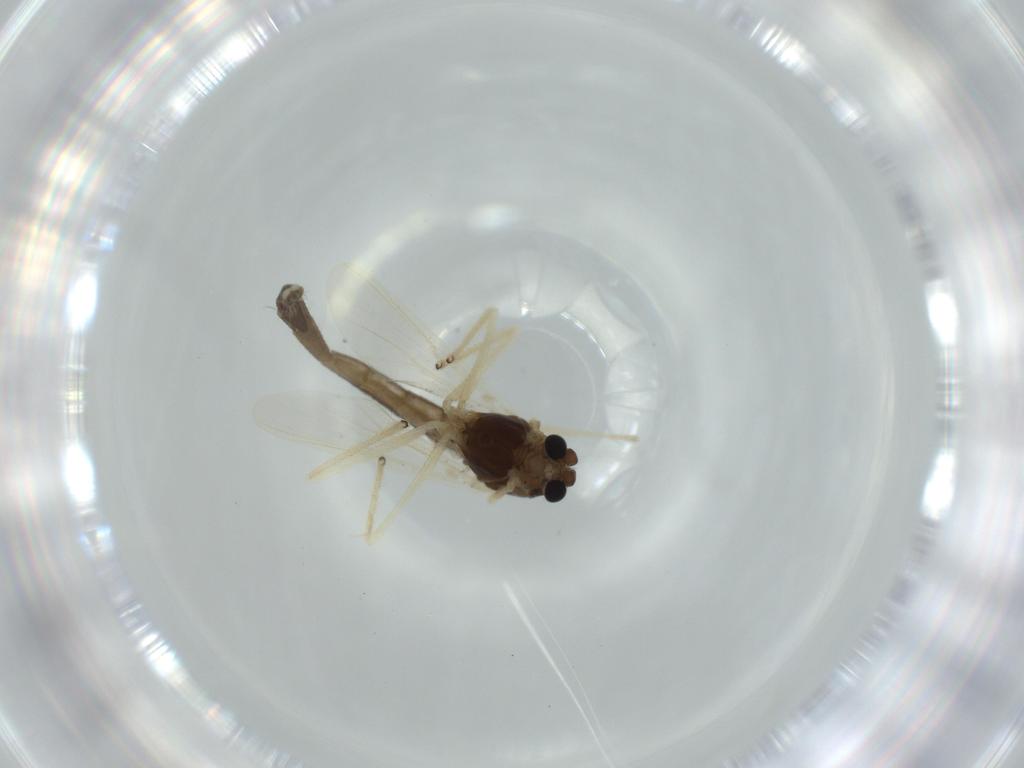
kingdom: Animalia
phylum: Arthropoda
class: Insecta
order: Diptera
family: Chironomidae
